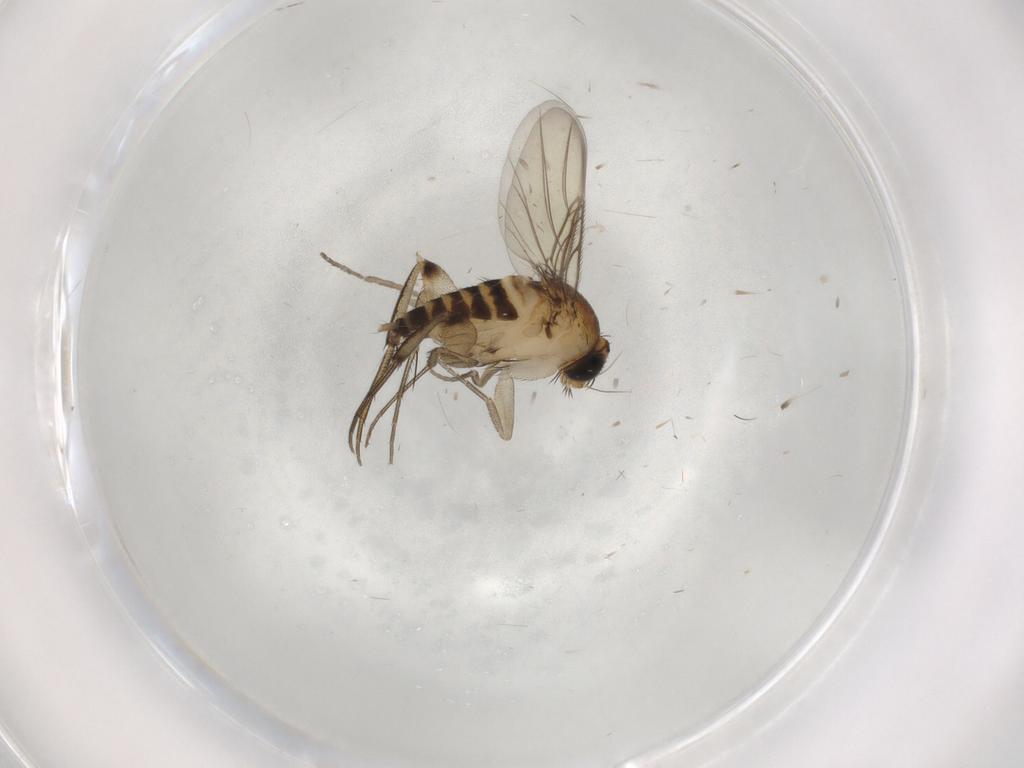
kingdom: Animalia
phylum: Arthropoda
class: Insecta
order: Diptera
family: Phoridae
